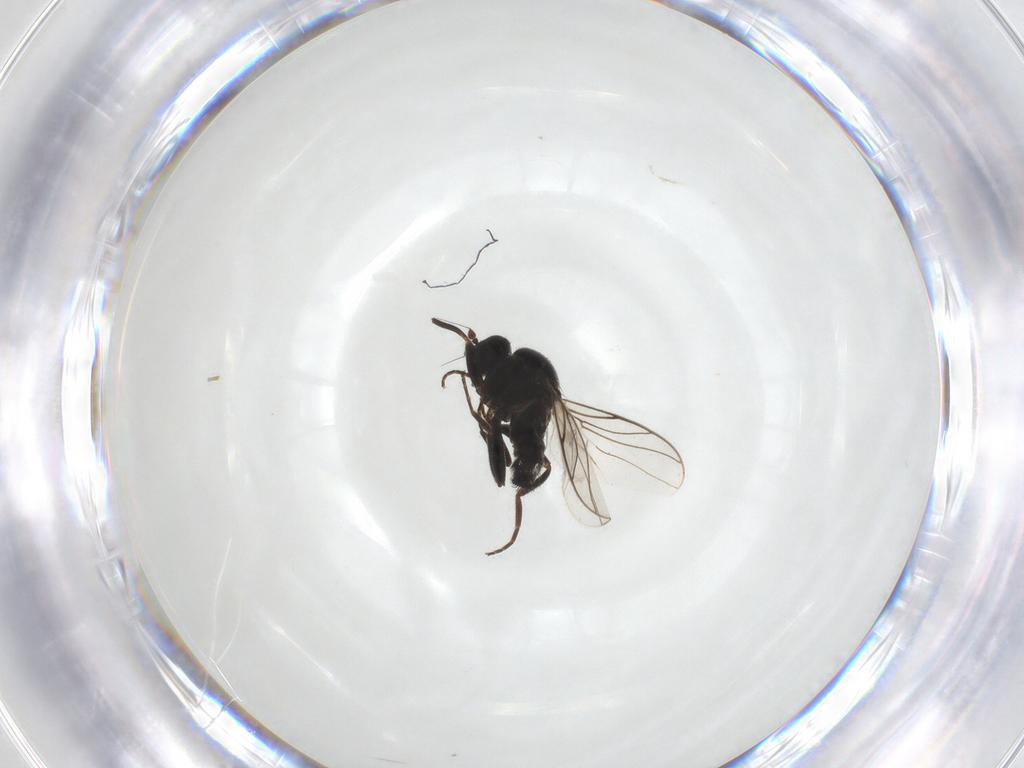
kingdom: Animalia
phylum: Arthropoda
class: Insecta
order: Diptera
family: Hybotidae
